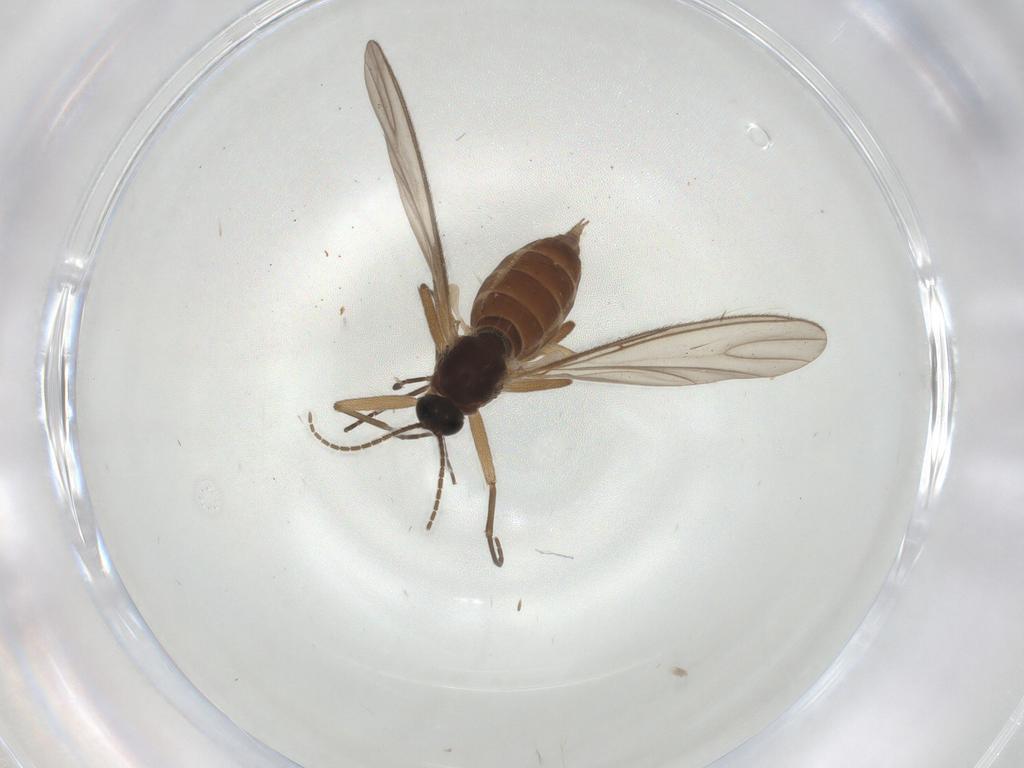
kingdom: Animalia
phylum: Arthropoda
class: Insecta
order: Diptera
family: Sciaridae
